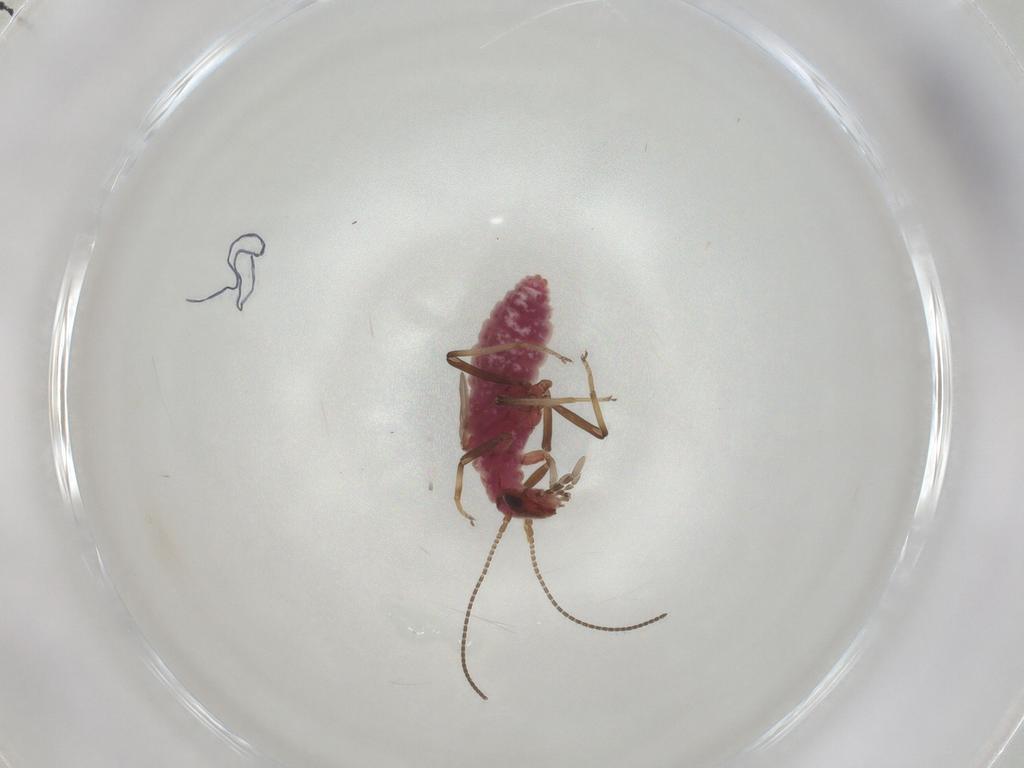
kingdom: Animalia
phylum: Arthropoda
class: Insecta
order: Neuroptera
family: Coniopterygidae
